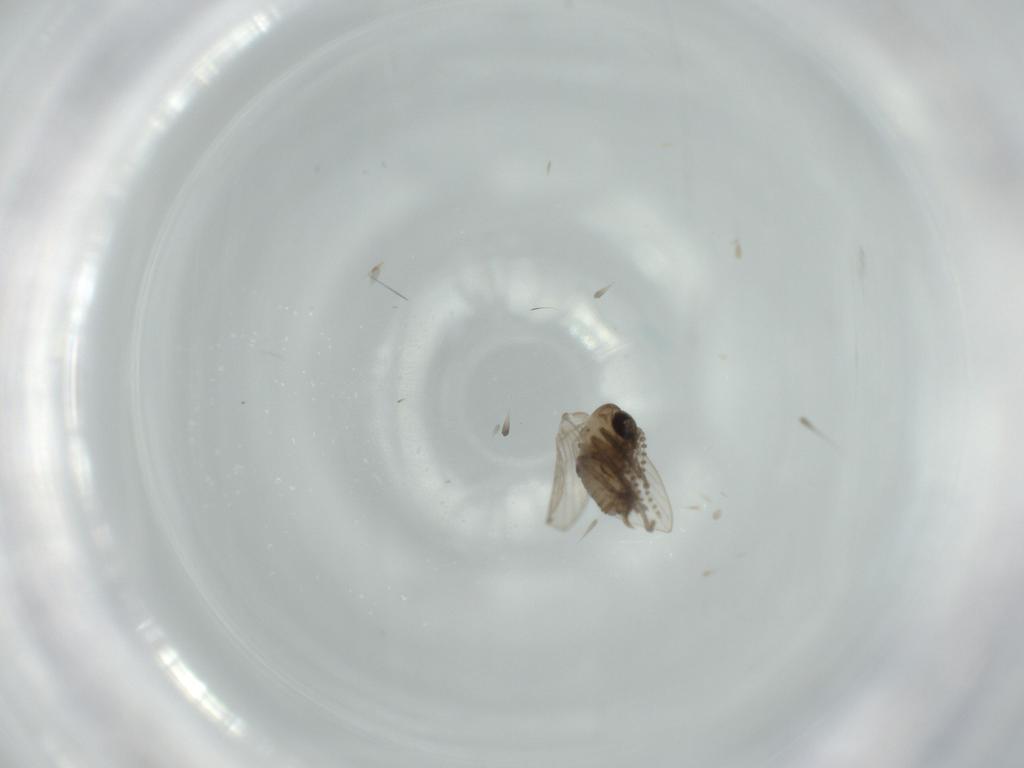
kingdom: Animalia
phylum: Arthropoda
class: Insecta
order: Diptera
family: Psychodidae
